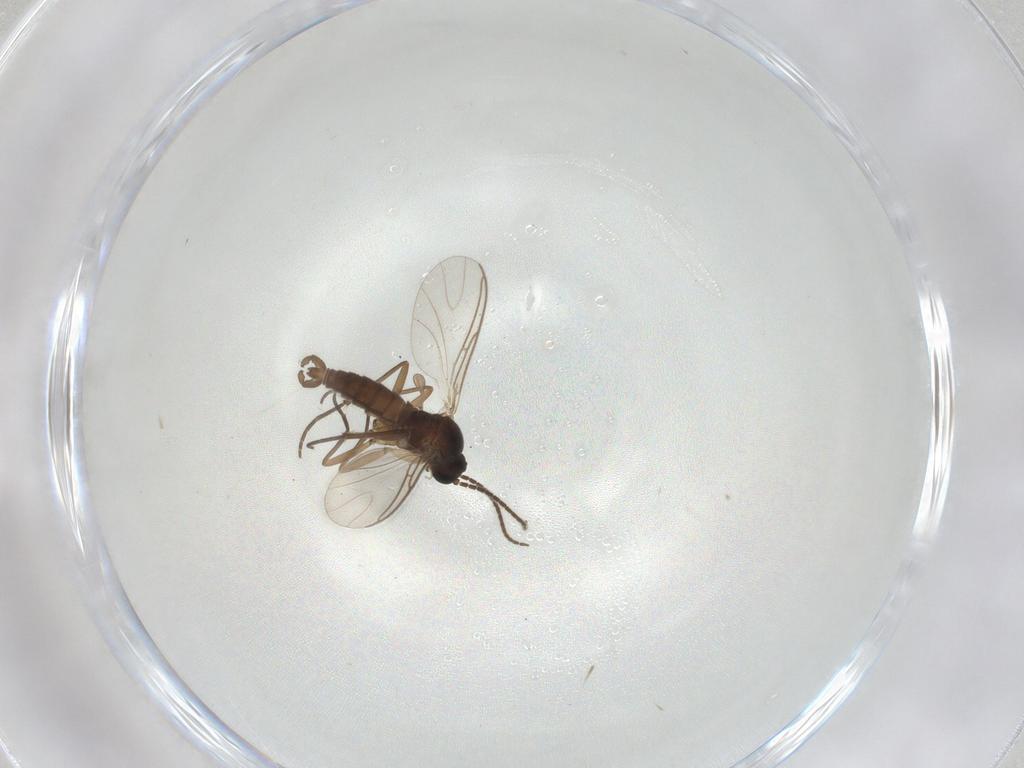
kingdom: Animalia
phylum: Arthropoda
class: Insecta
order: Diptera
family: Sciaridae
